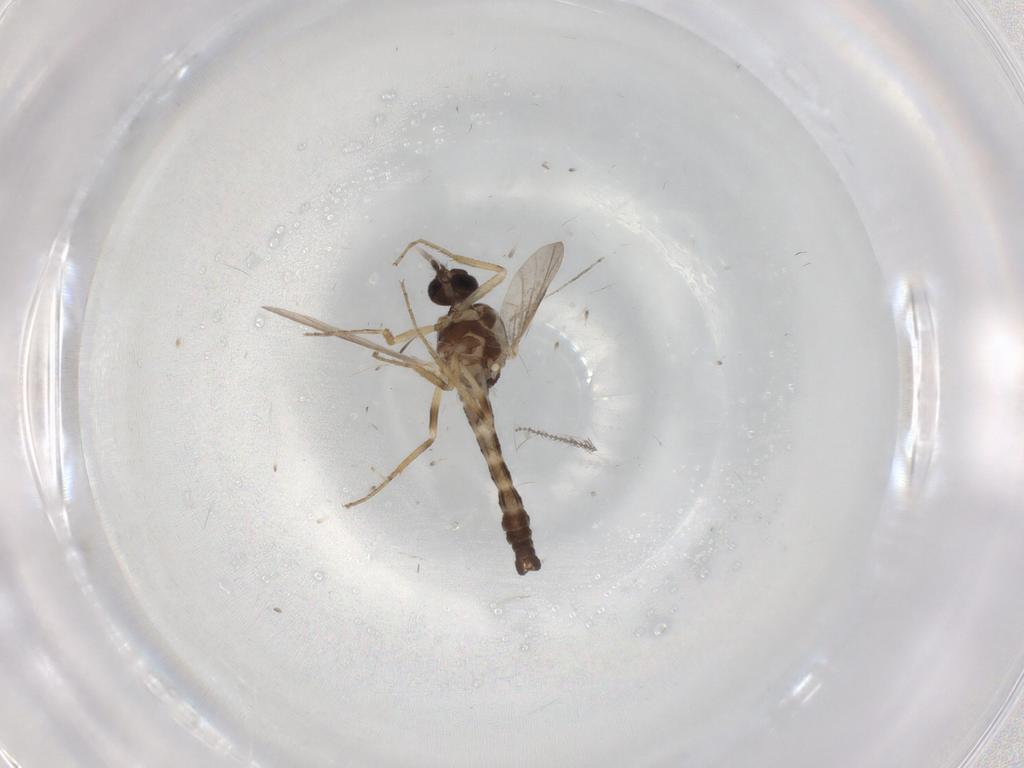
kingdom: Animalia
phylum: Arthropoda
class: Insecta
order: Diptera
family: Ceratopogonidae
